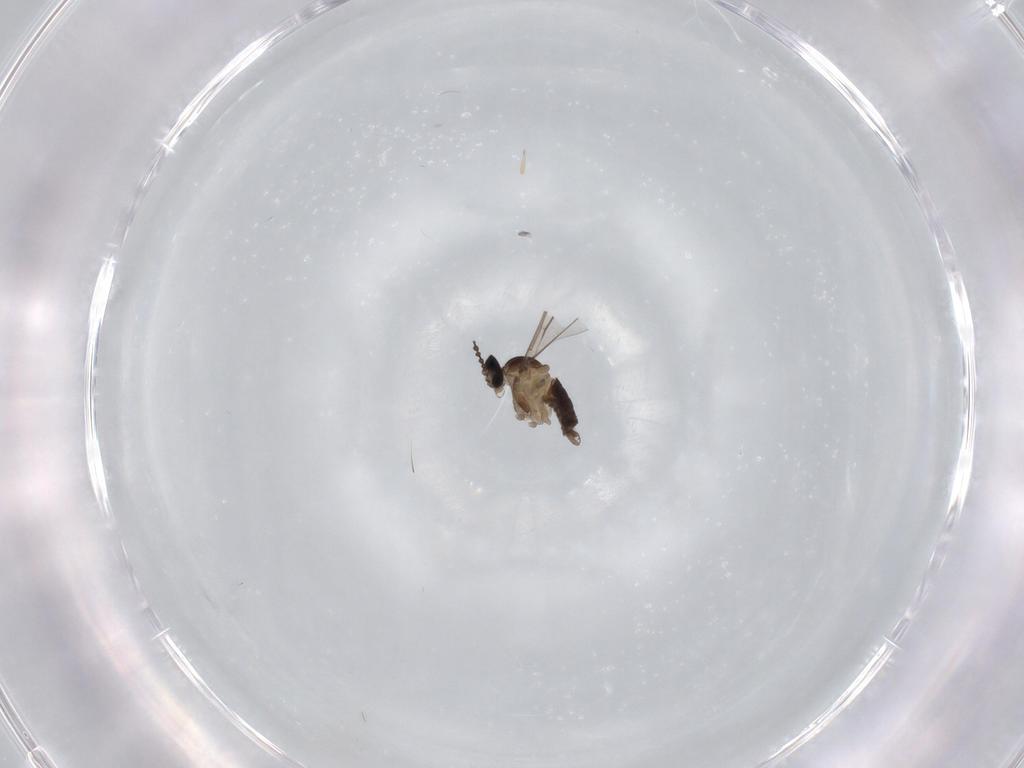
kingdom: Animalia
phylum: Arthropoda
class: Insecta
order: Diptera
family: Cecidomyiidae
